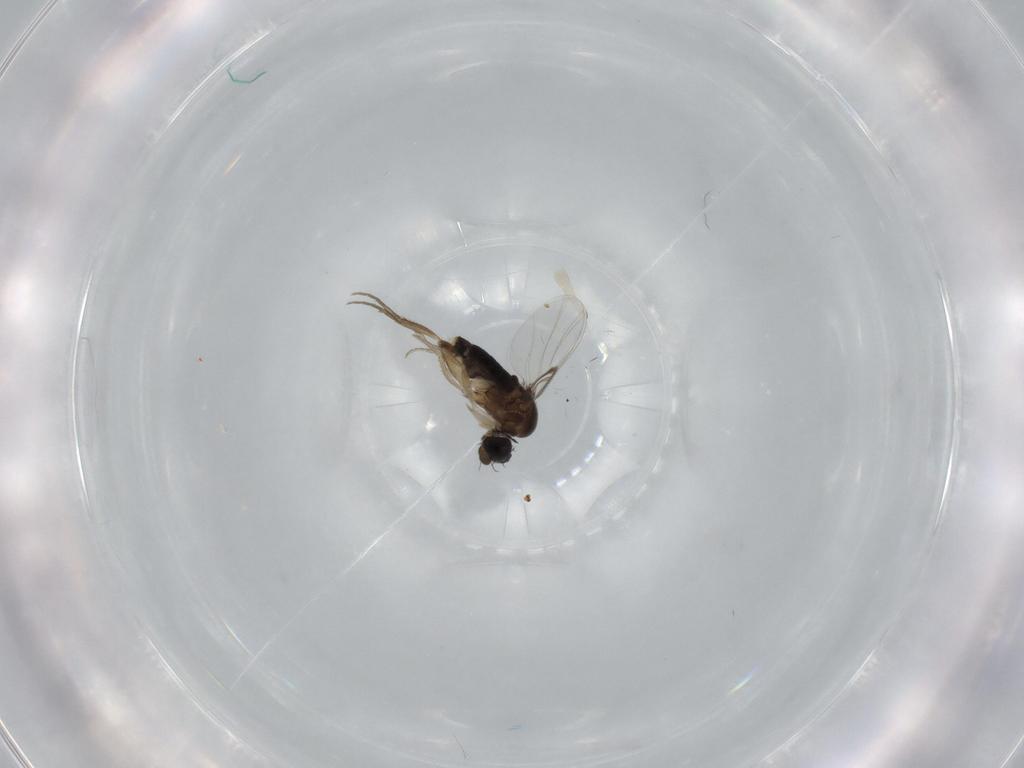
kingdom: Animalia
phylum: Arthropoda
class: Insecta
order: Diptera
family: Phoridae
